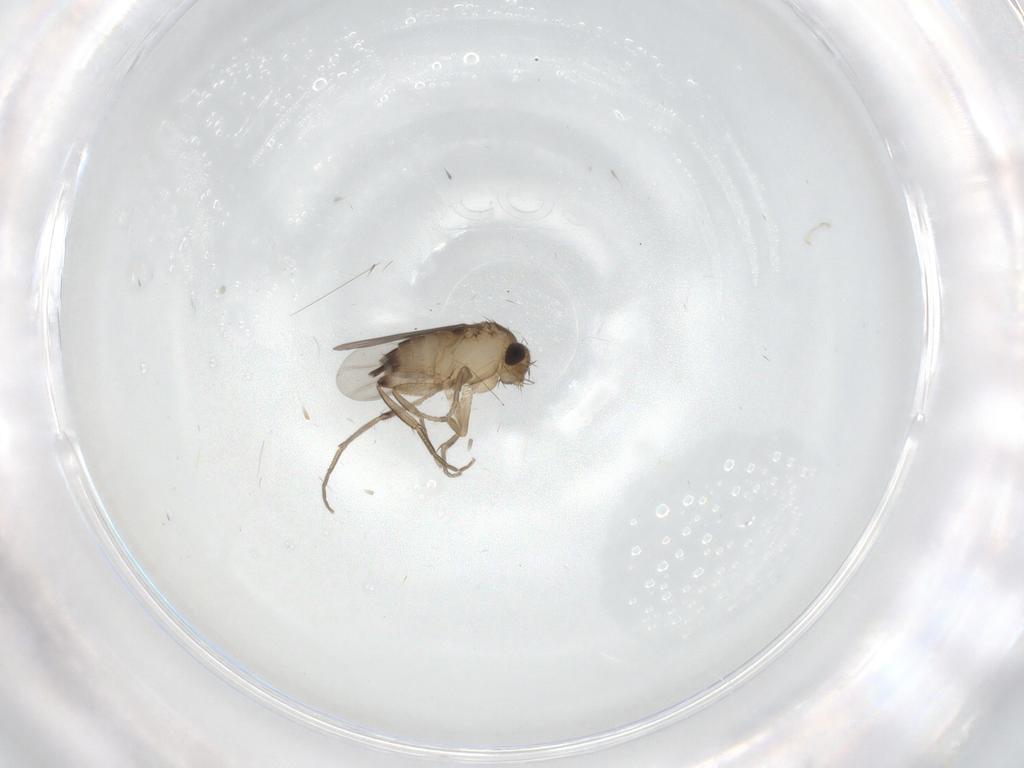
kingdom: Animalia
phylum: Arthropoda
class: Insecta
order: Diptera
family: Phoridae
